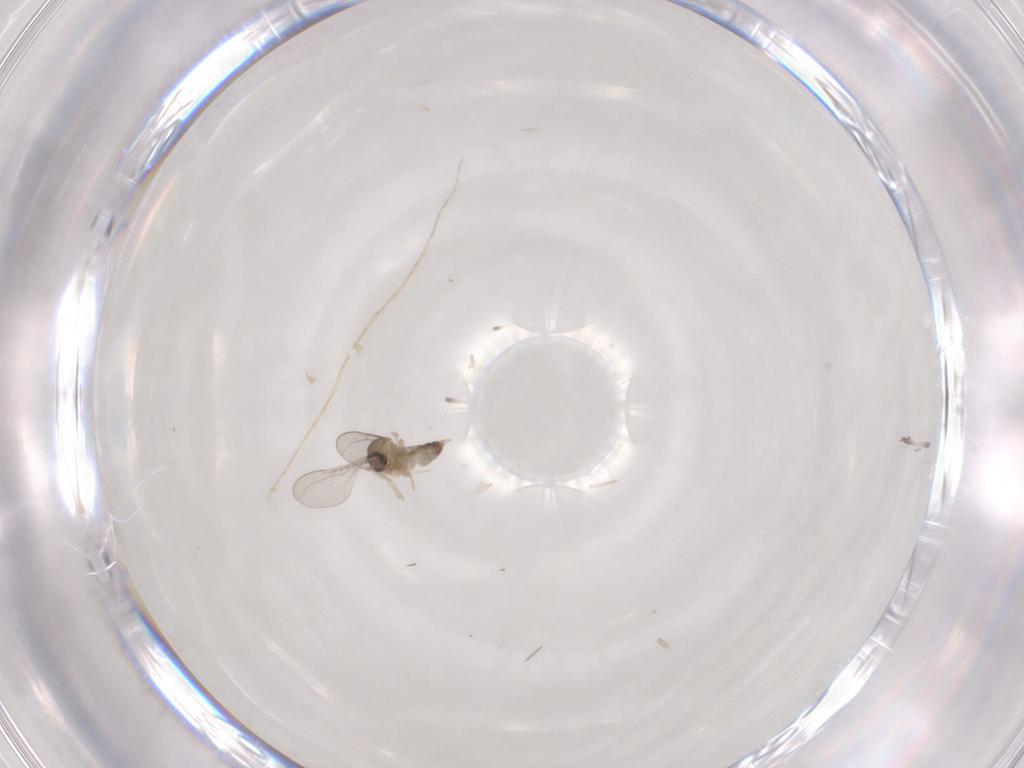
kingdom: Animalia
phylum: Arthropoda
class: Insecta
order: Diptera
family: Cecidomyiidae
